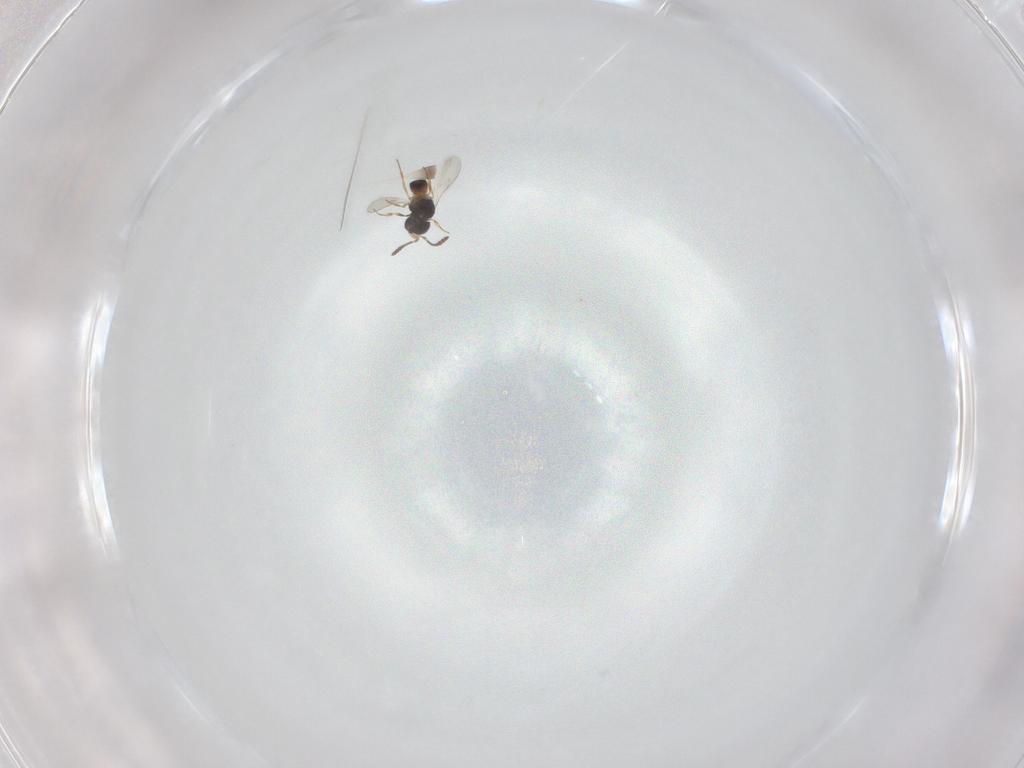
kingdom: Animalia
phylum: Arthropoda
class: Insecta
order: Hymenoptera
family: Scelionidae
